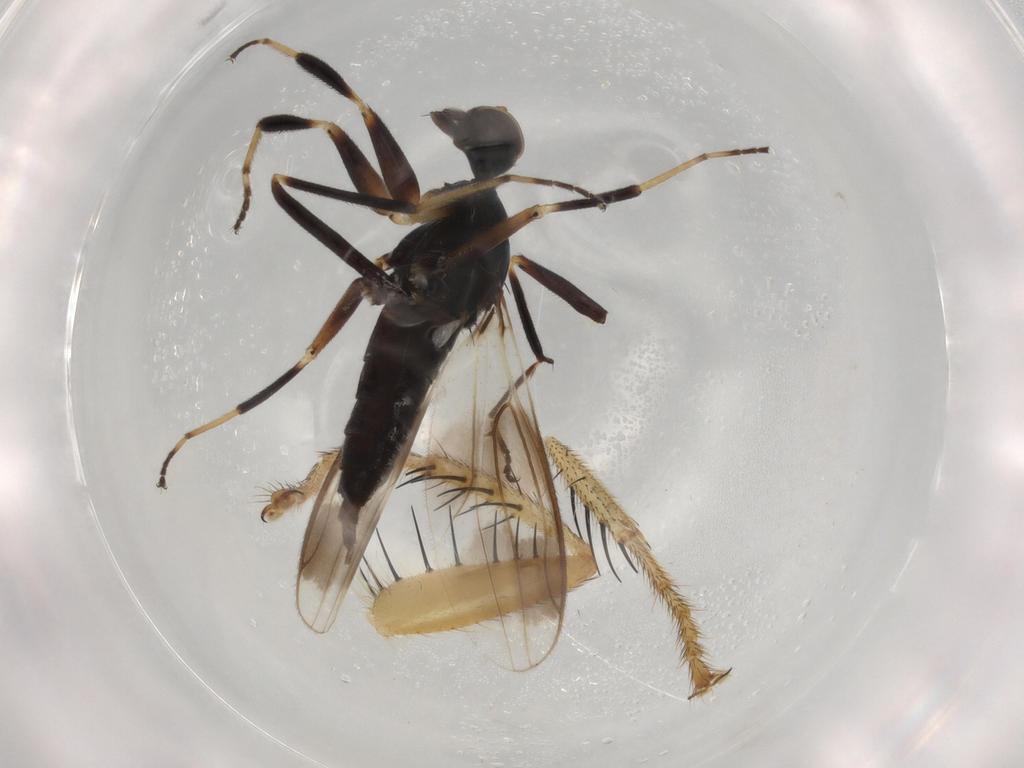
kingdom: Animalia
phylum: Arthropoda
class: Insecta
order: Diptera
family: Hybotidae
